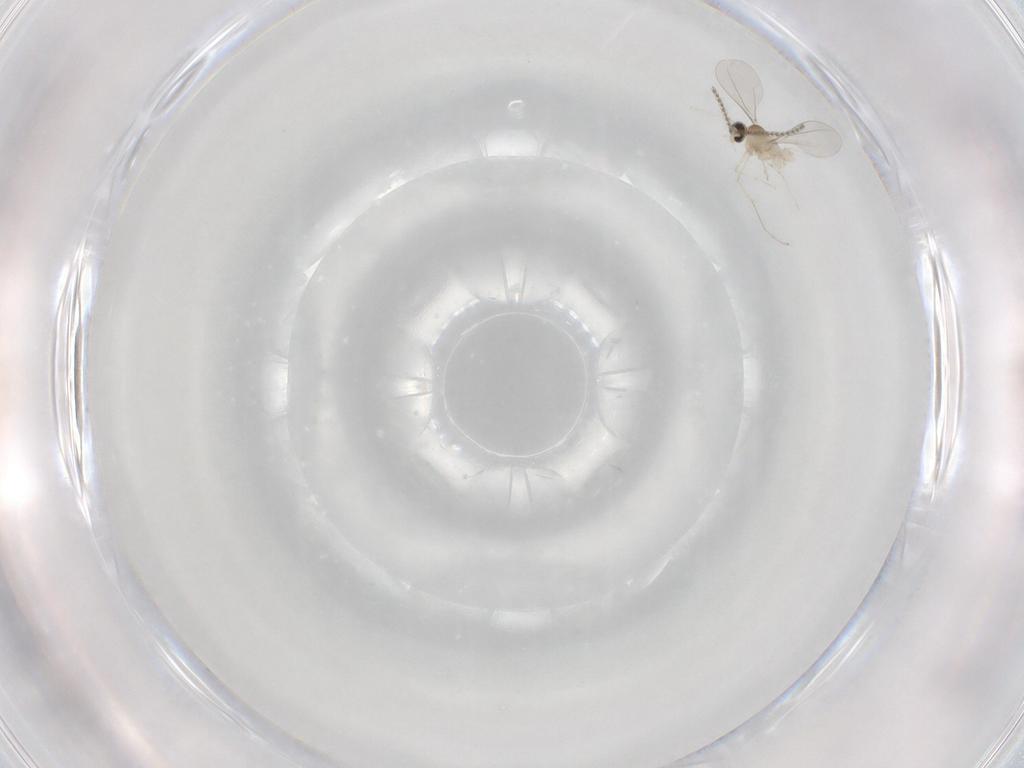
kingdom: Animalia
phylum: Arthropoda
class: Insecta
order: Diptera
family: Cecidomyiidae
